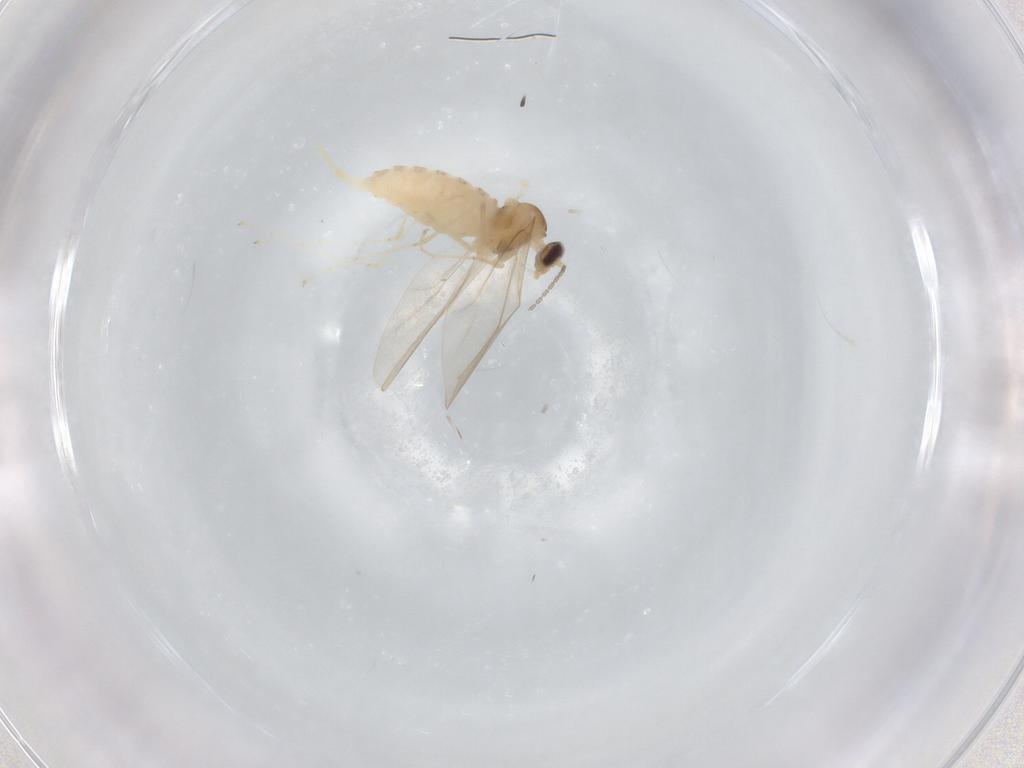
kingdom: Animalia
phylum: Arthropoda
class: Insecta
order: Diptera
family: Cecidomyiidae
